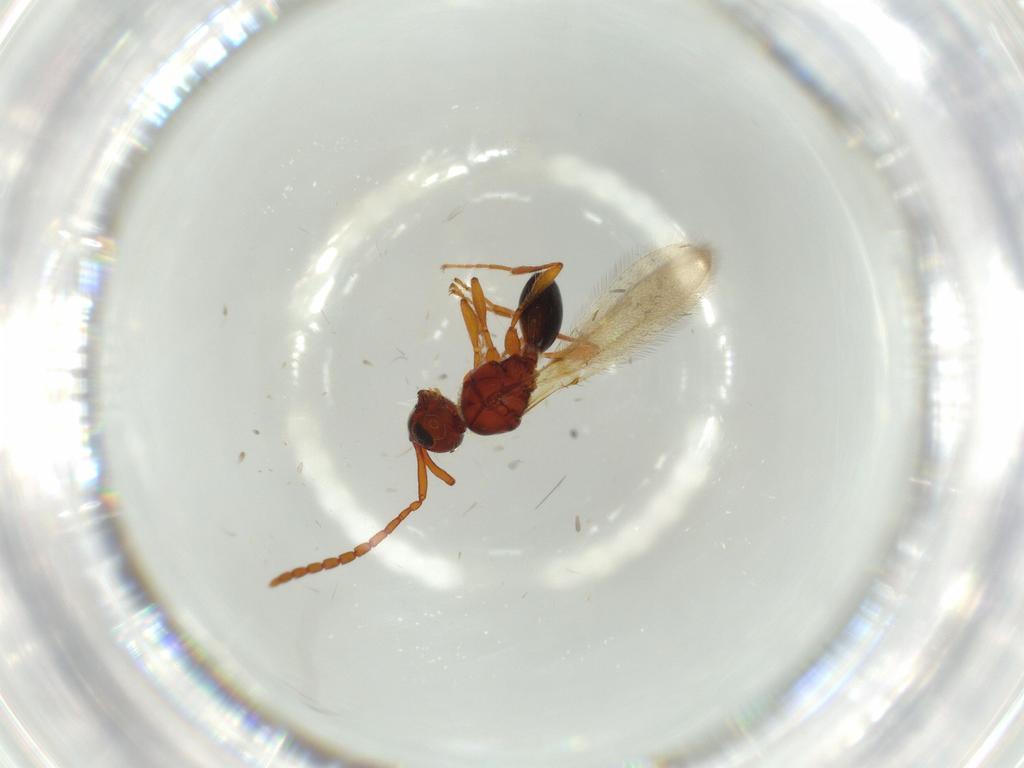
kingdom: Animalia
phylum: Arthropoda
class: Insecta
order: Hymenoptera
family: Diapriidae
